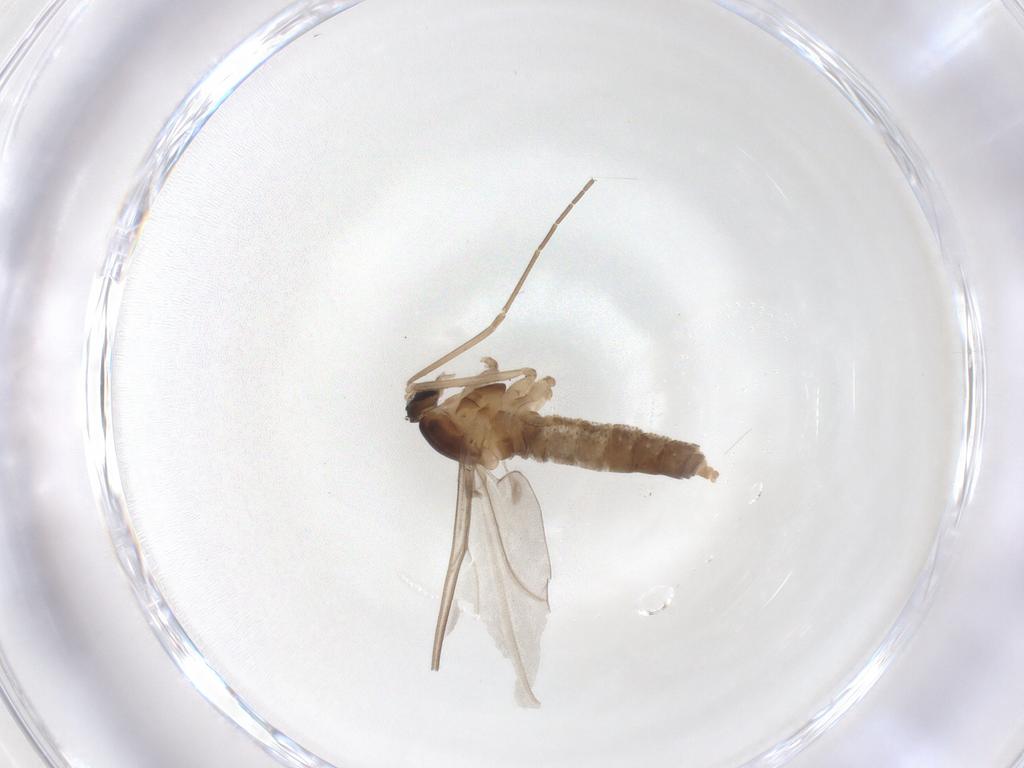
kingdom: Animalia
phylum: Arthropoda
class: Insecta
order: Diptera
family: Cecidomyiidae
